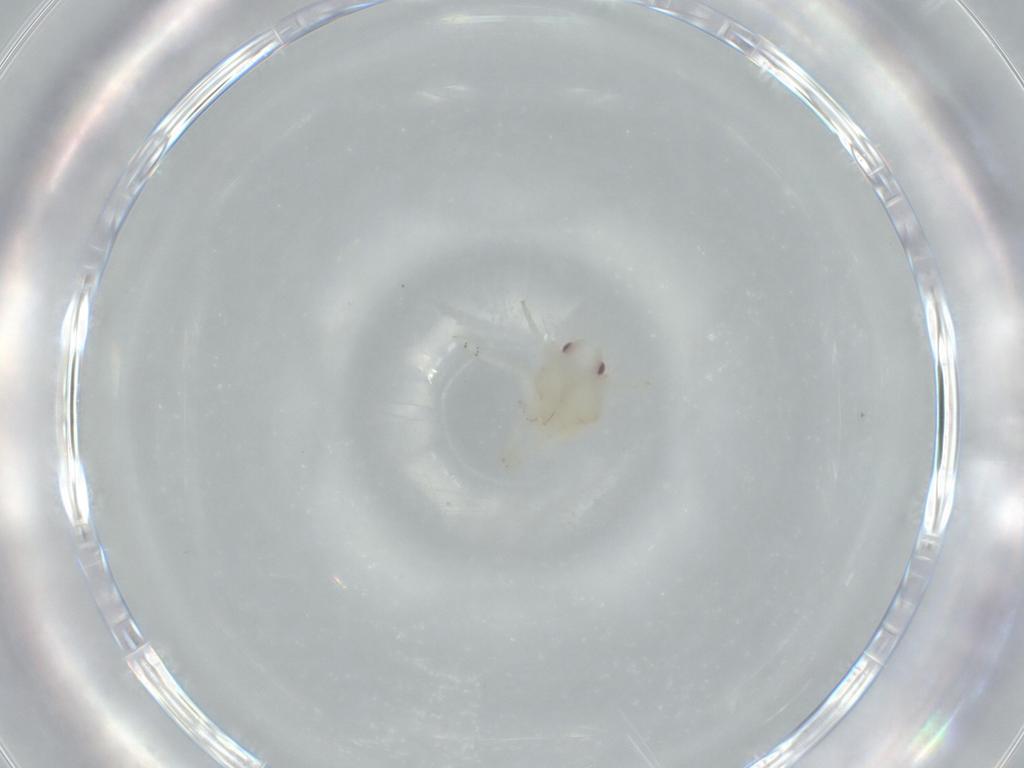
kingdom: Animalia
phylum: Arthropoda
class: Insecta
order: Hemiptera
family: Flatidae
